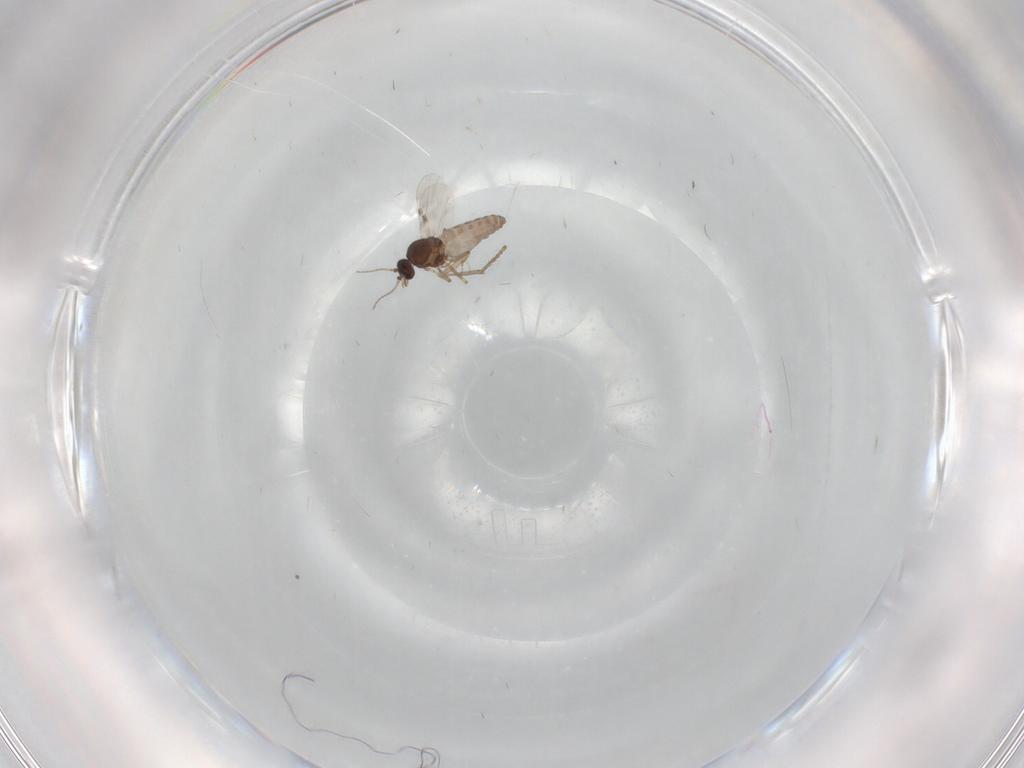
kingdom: Animalia
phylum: Arthropoda
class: Insecta
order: Diptera
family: Cecidomyiidae
